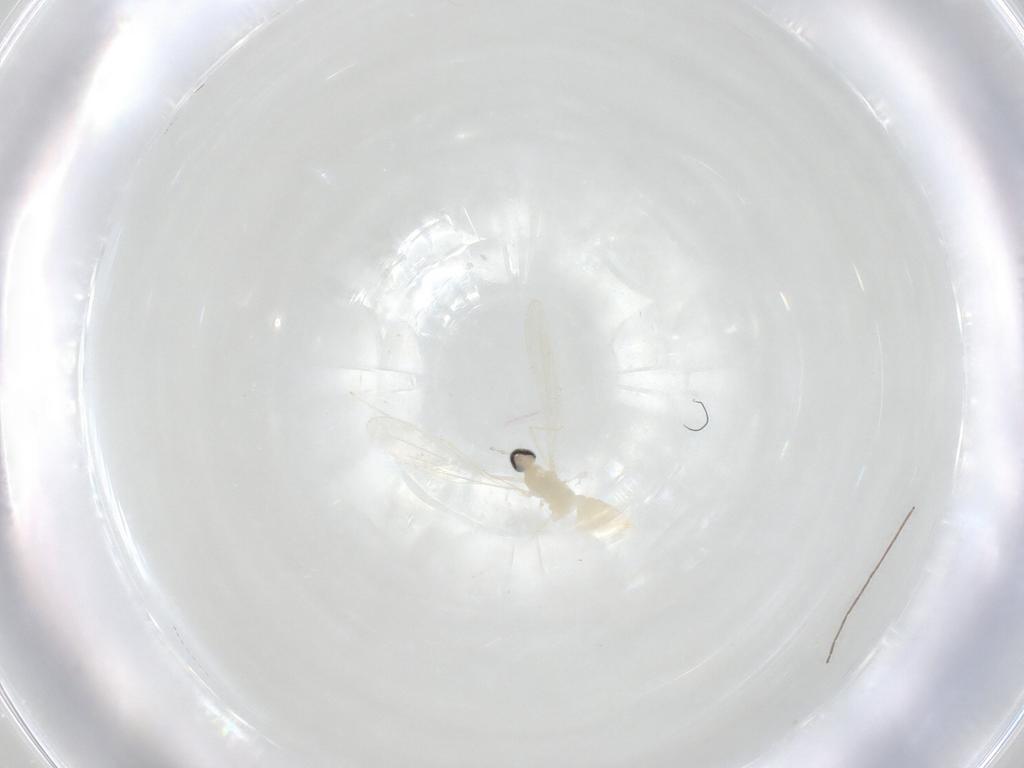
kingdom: Animalia
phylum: Arthropoda
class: Insecta
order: Diptera
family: Cecidomyiidae
